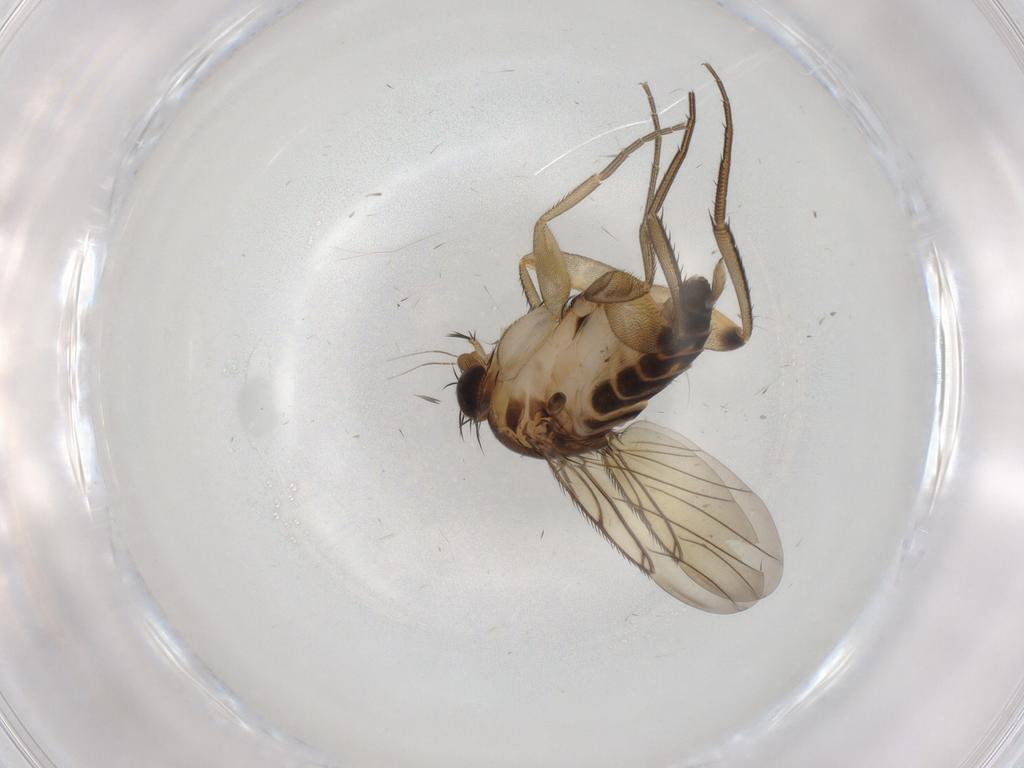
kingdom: Animalia
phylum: Arthropoda
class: Insecta
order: Diptera
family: Phoridae
